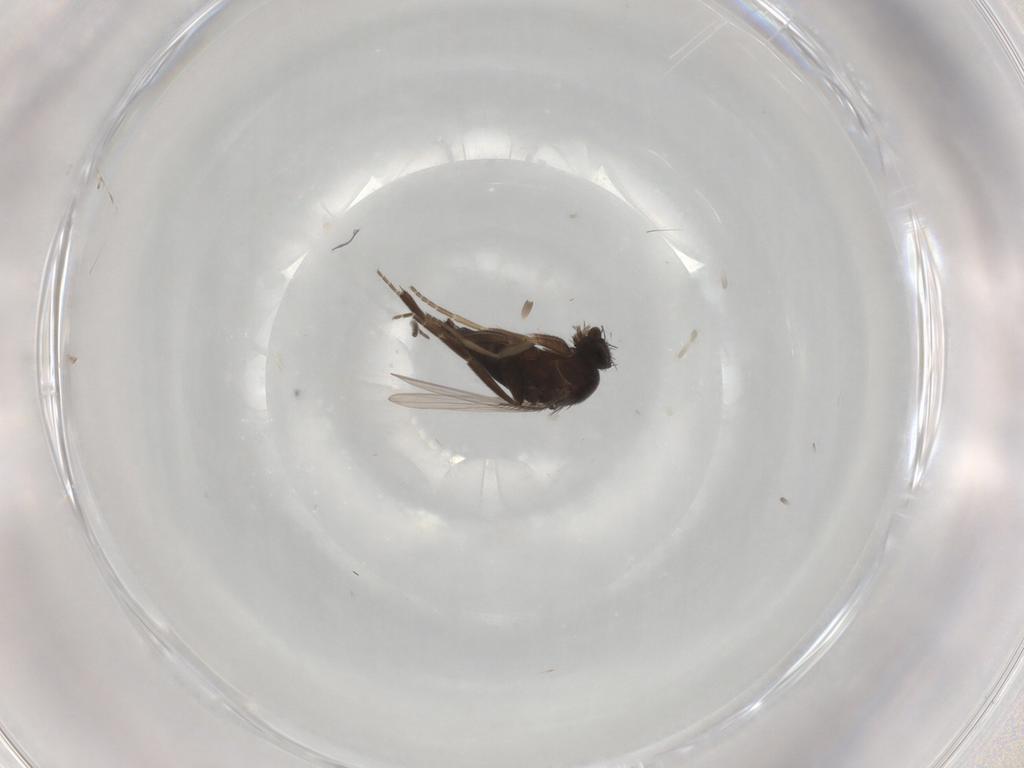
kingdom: Animalia
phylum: Arthropoda
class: Insecta
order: Diptera
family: Phoridae
